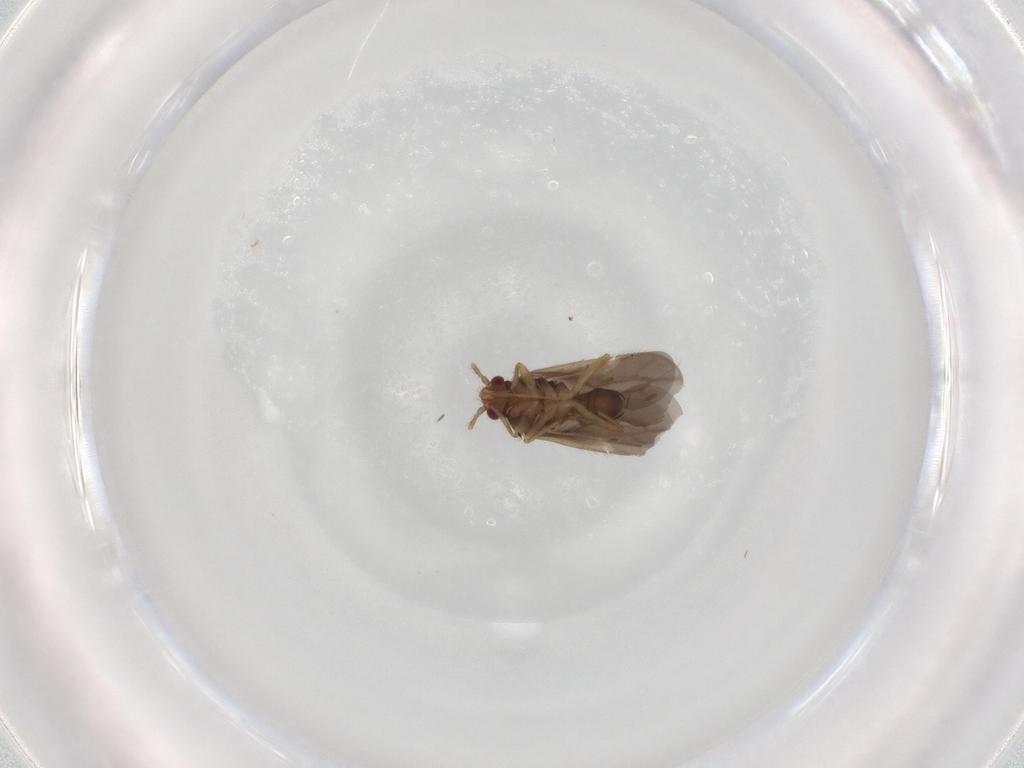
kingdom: Animalia
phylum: Arthropoda
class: Insecta
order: Hemiptera
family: Ceratocombidae
